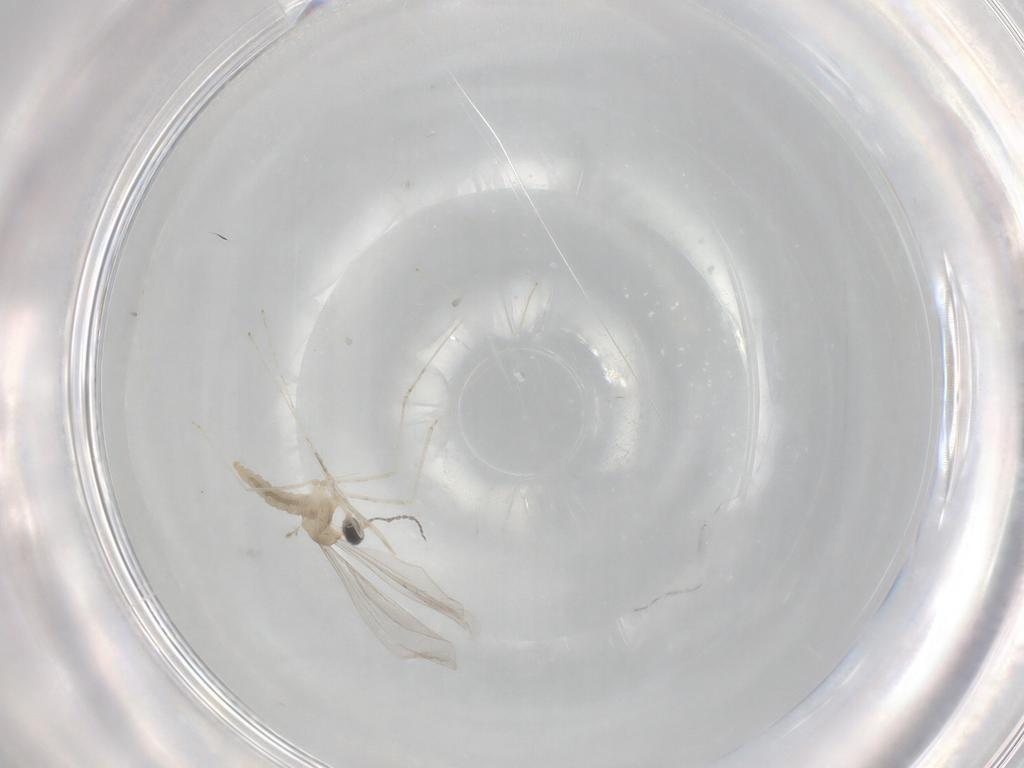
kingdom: Animalia
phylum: Arthropoda
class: Insecta
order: Diptera
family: Cecidomyiidae
